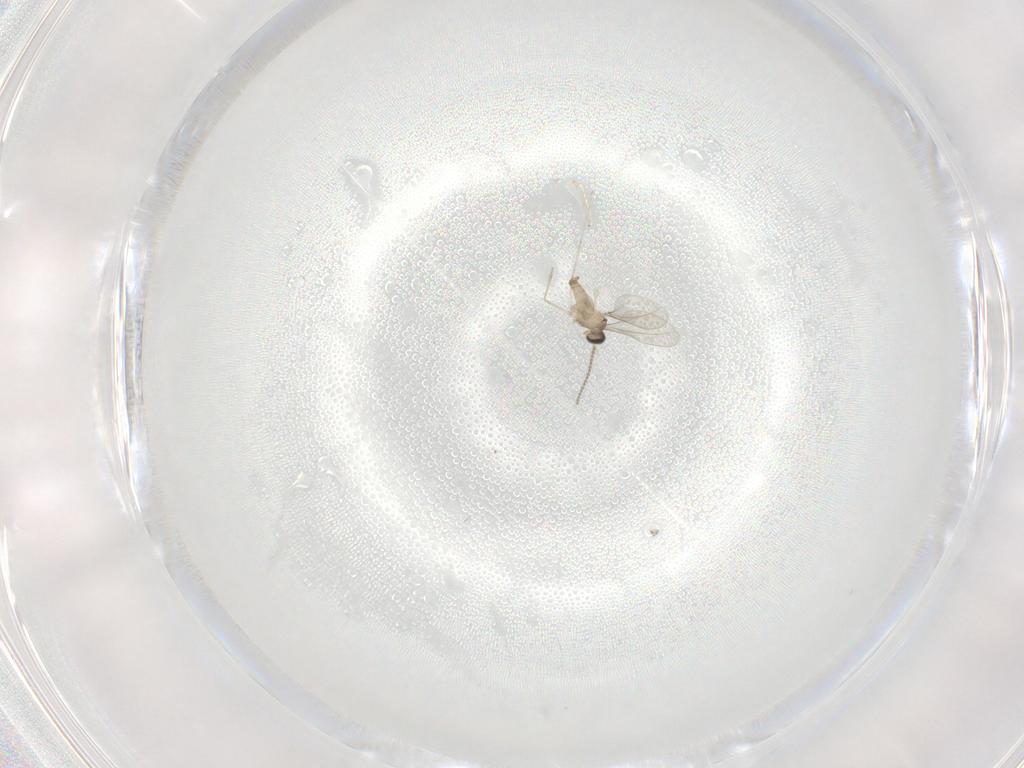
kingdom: Animalia
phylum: Arthropoda
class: Insecta
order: Diptera
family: Cecidomyiidae
